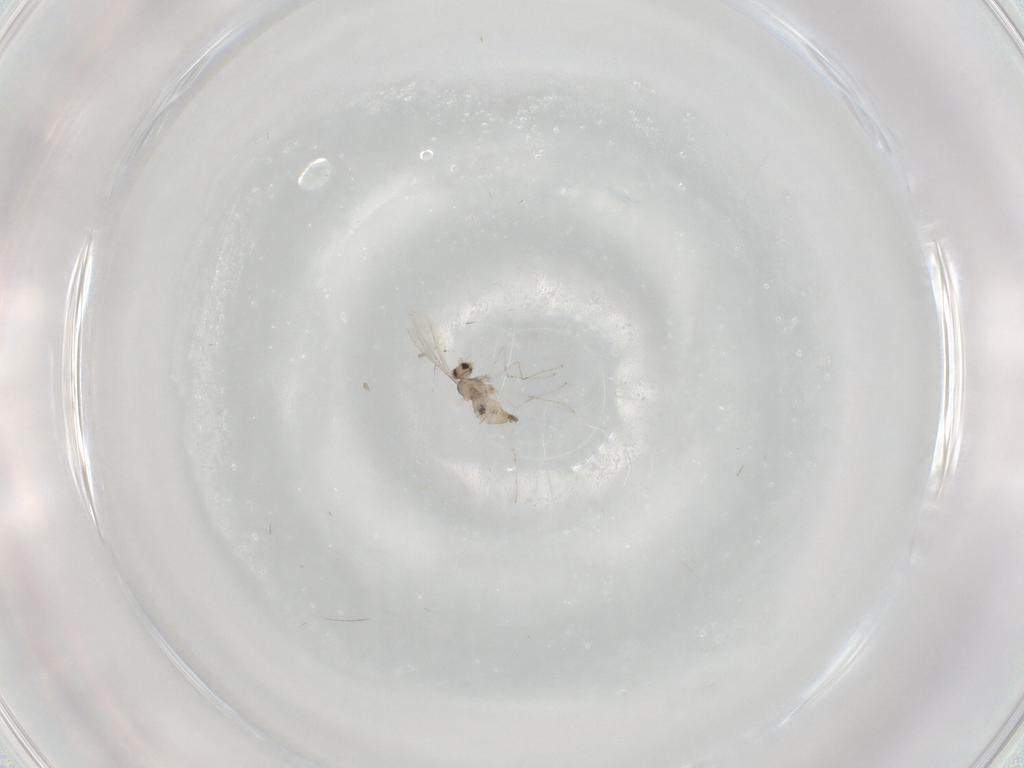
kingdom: Animalia
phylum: Arthropoda
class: Insecta
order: Diptera
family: Cecidomyiidae
